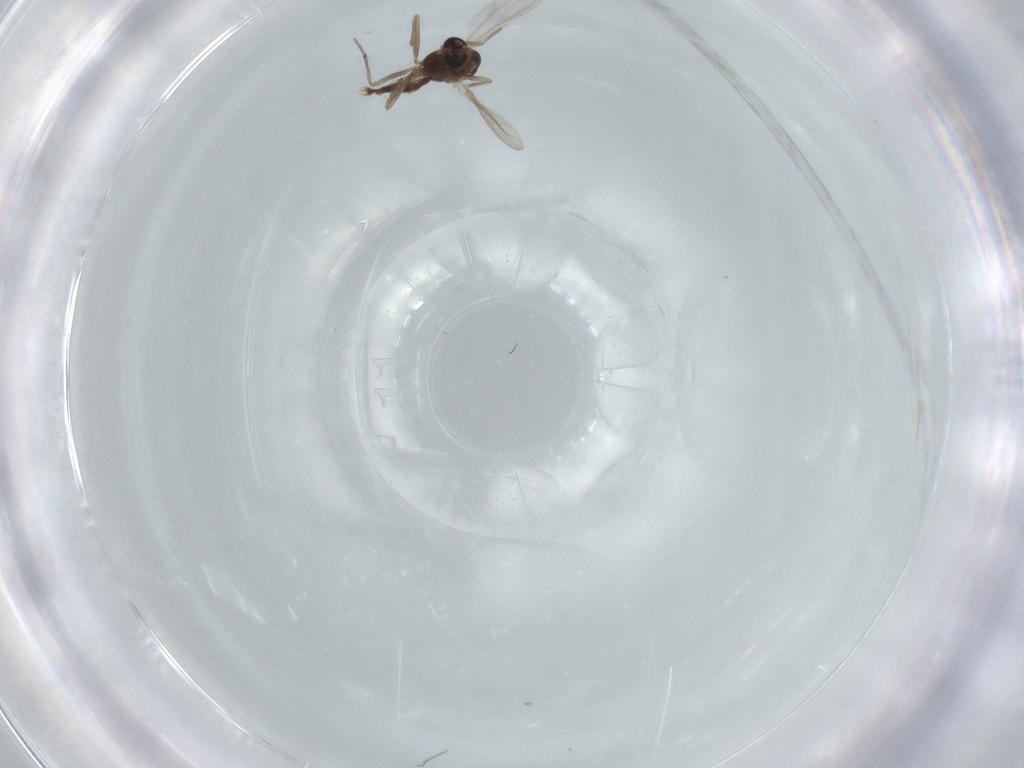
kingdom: Animalia
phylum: Arthropoda
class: Insecta
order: Diptera
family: Chironomidae
